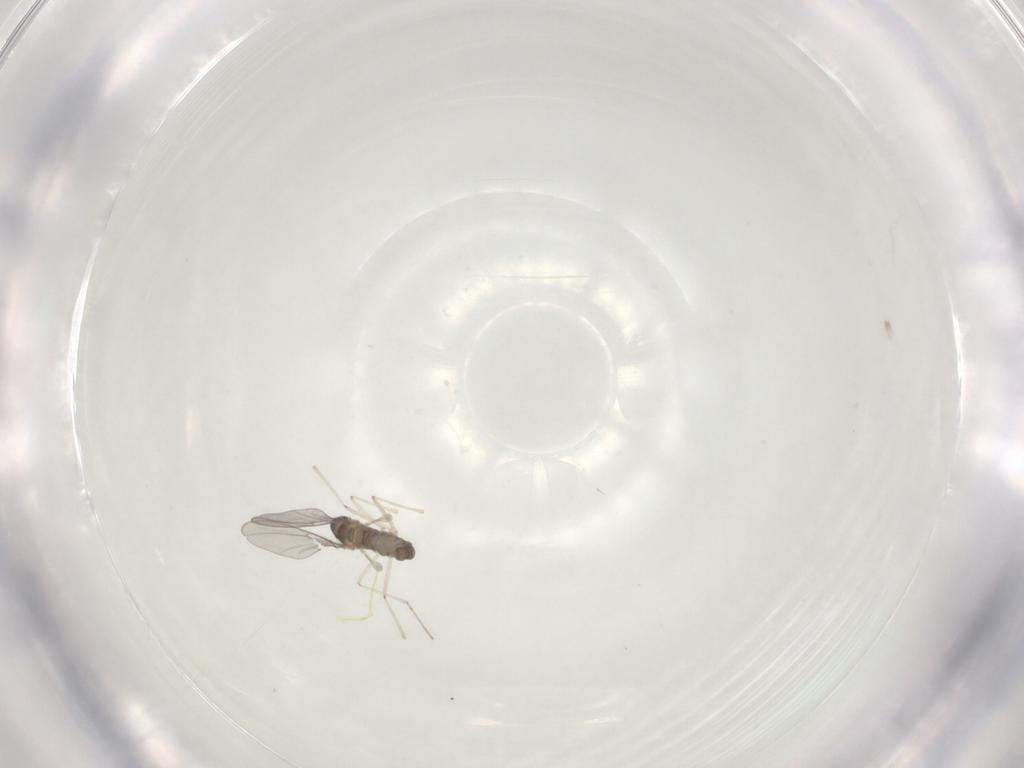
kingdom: Animalia
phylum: Arthropoda
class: Insecta
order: Diptera
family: Cecidomyiidae
